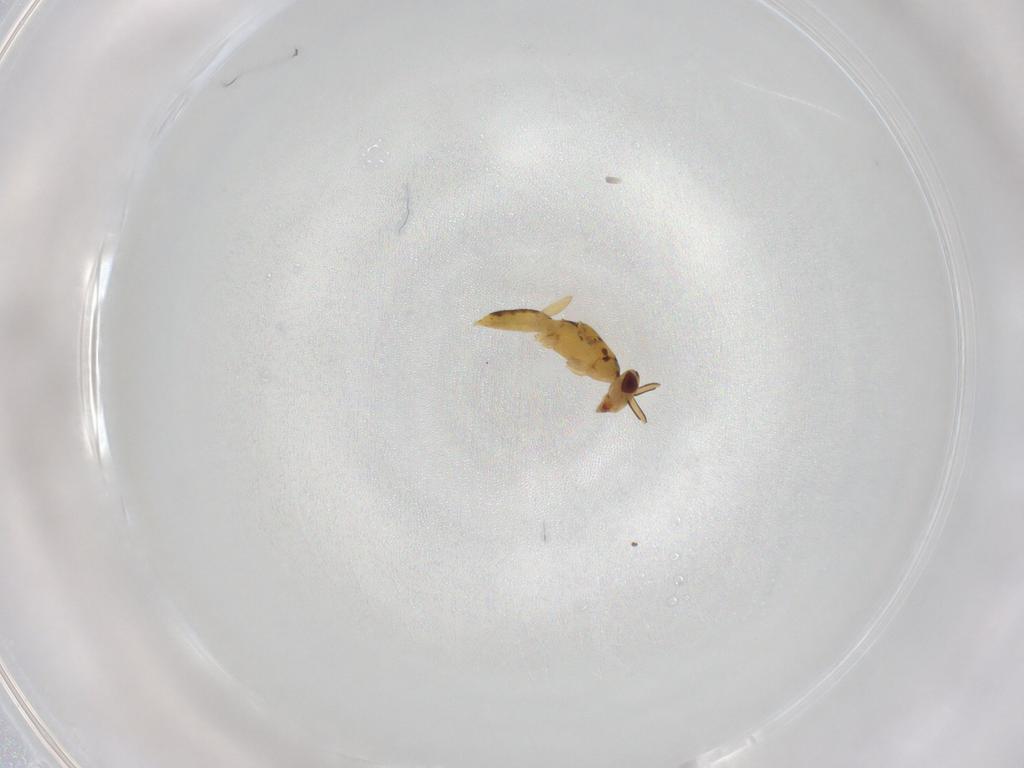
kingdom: Animalia
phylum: Arthropoda
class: Insecta
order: Hymenoptera
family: Eulophidae
